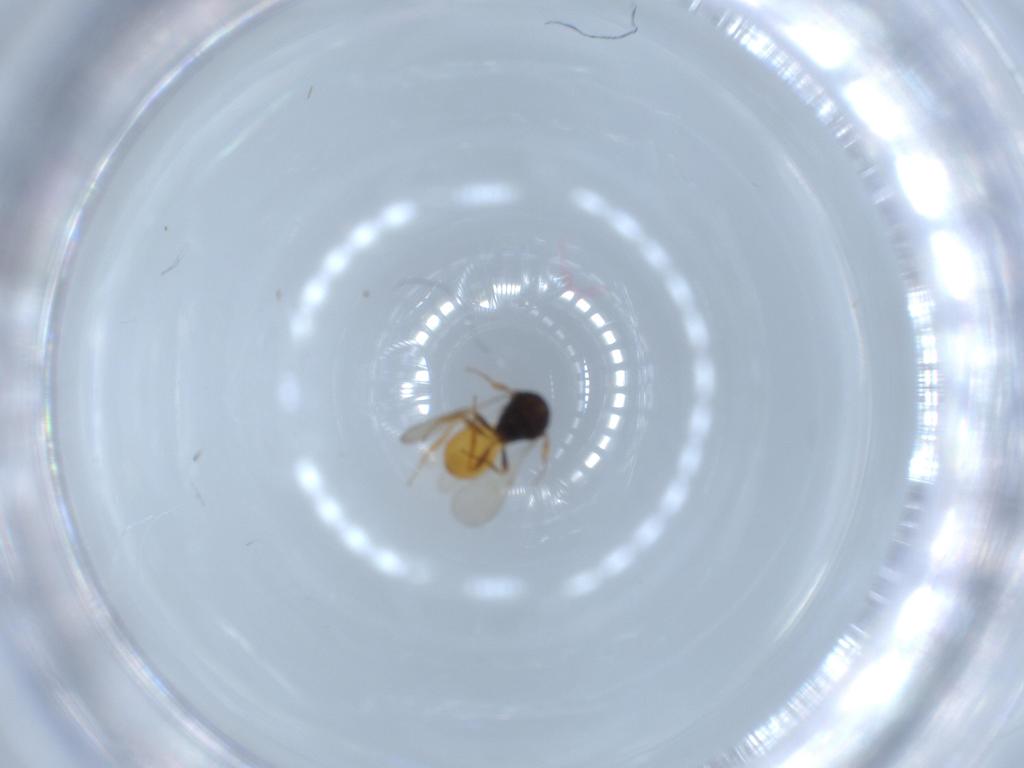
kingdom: Animalia
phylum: Arthropoda
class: Insecta
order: Hymenoptera
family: Scelionidae
